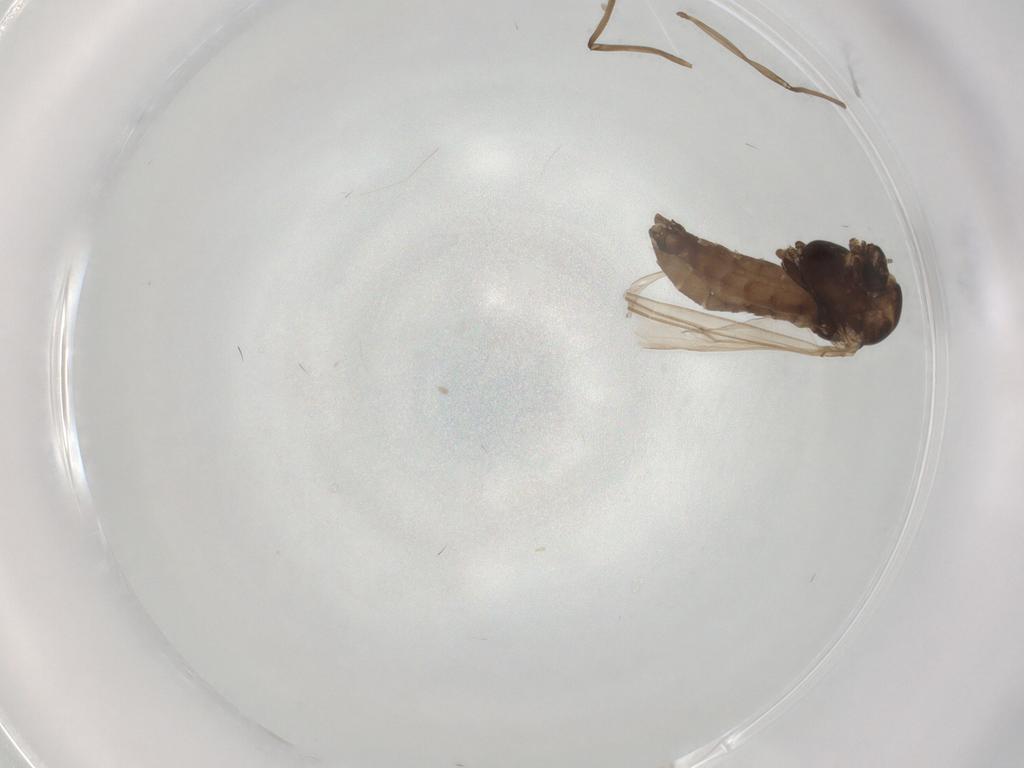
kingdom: Animalia
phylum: Arthropoda
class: Insecta
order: Diptera
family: Chironomidae
